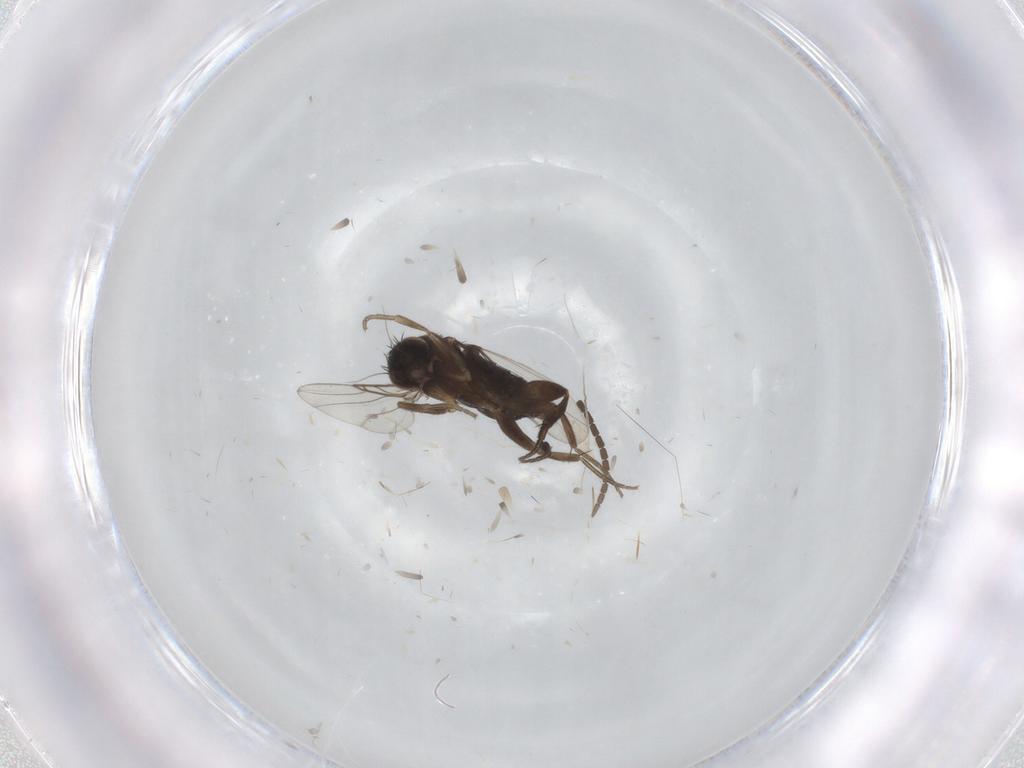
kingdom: Animalia
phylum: Arthropoda
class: Insecta
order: Diptera
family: Phoridae
